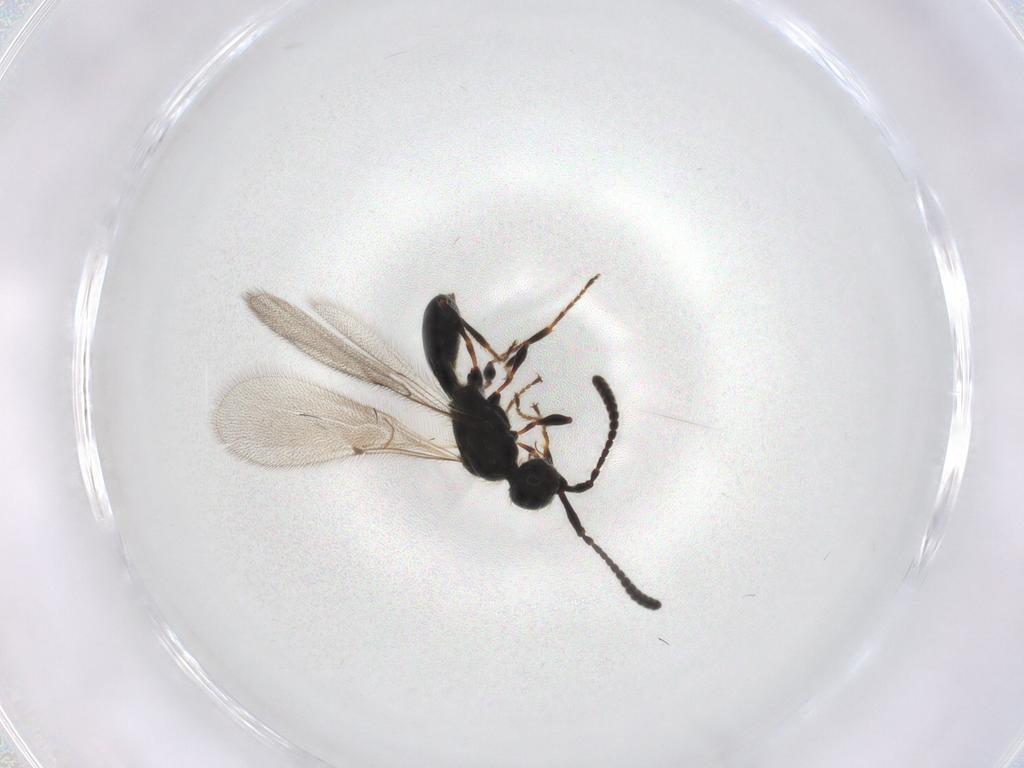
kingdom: Animalia
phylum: Arthropoda
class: Insecta
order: Hymenoptera
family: Diapriidae
